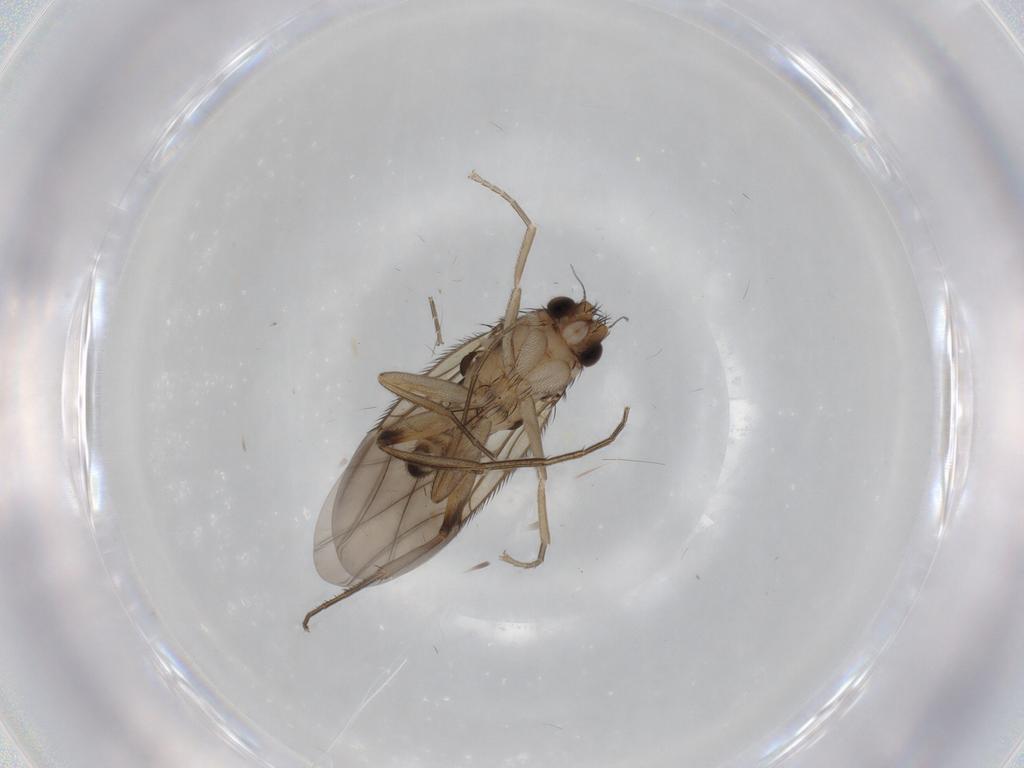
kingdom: Animalia
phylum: Arthropoda
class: Insecta
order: Diptera
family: Phoridae
